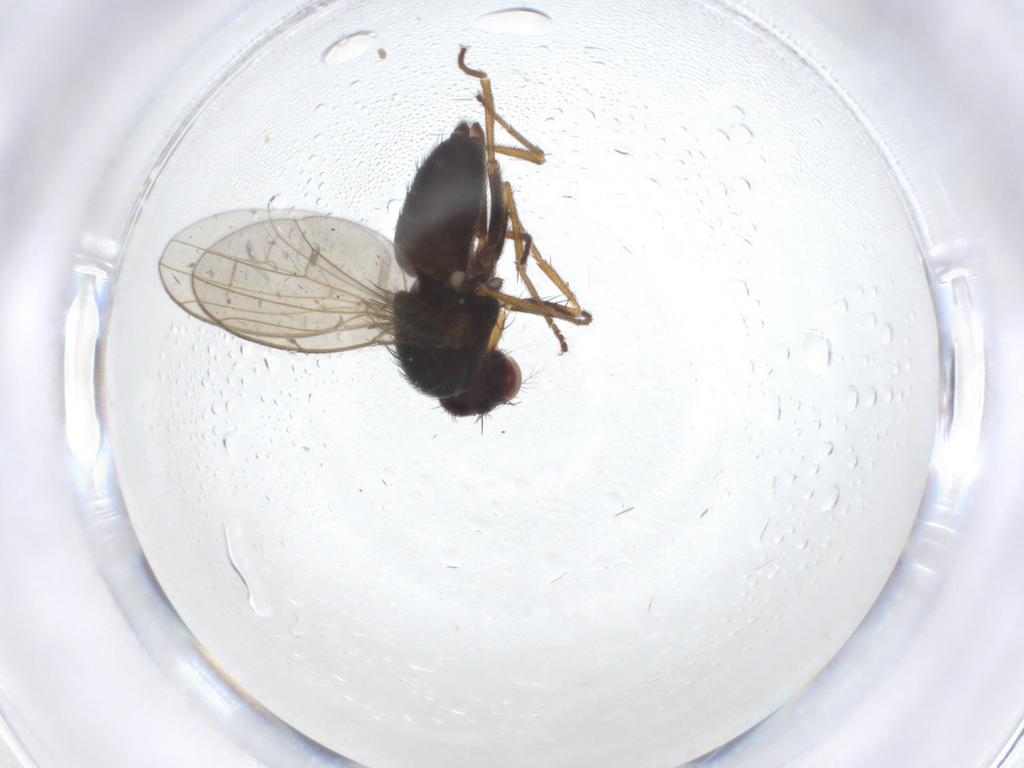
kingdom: Animalia
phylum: Arthropoda
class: Insecta
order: Diptera
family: Drosophilidae
